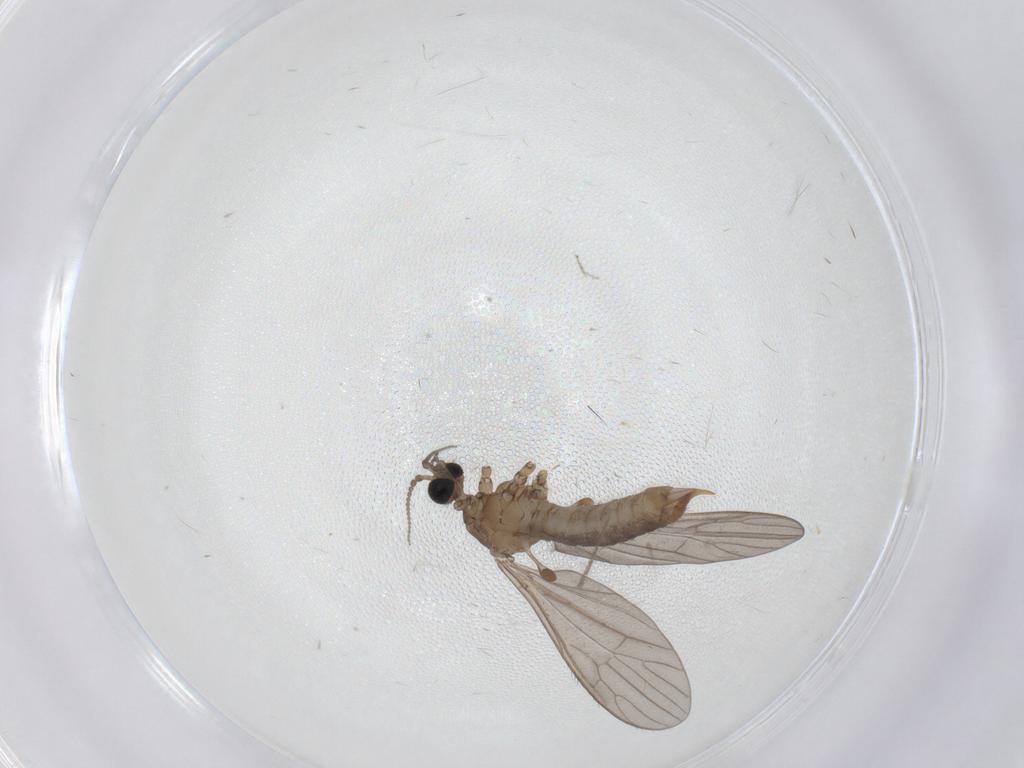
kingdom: Animalia
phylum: Arthropoda
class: Insecta
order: Diptera
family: Limoniidae
